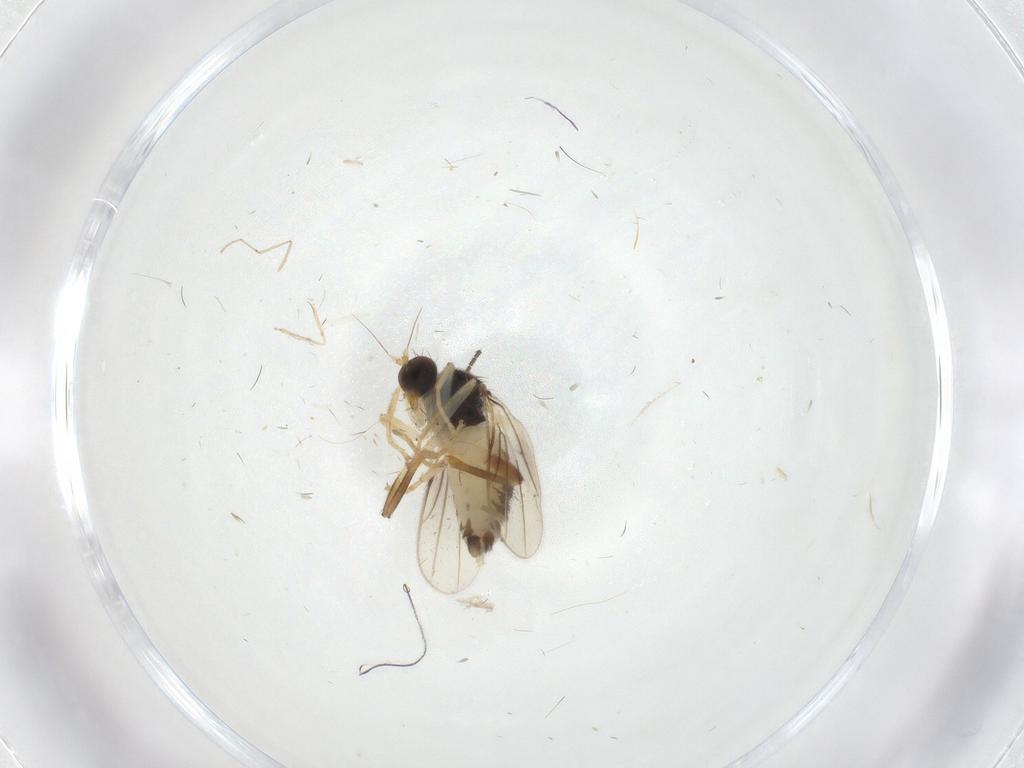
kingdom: Animalia
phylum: Arthropoda
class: Insecta
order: Diptera
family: Hybotidae
